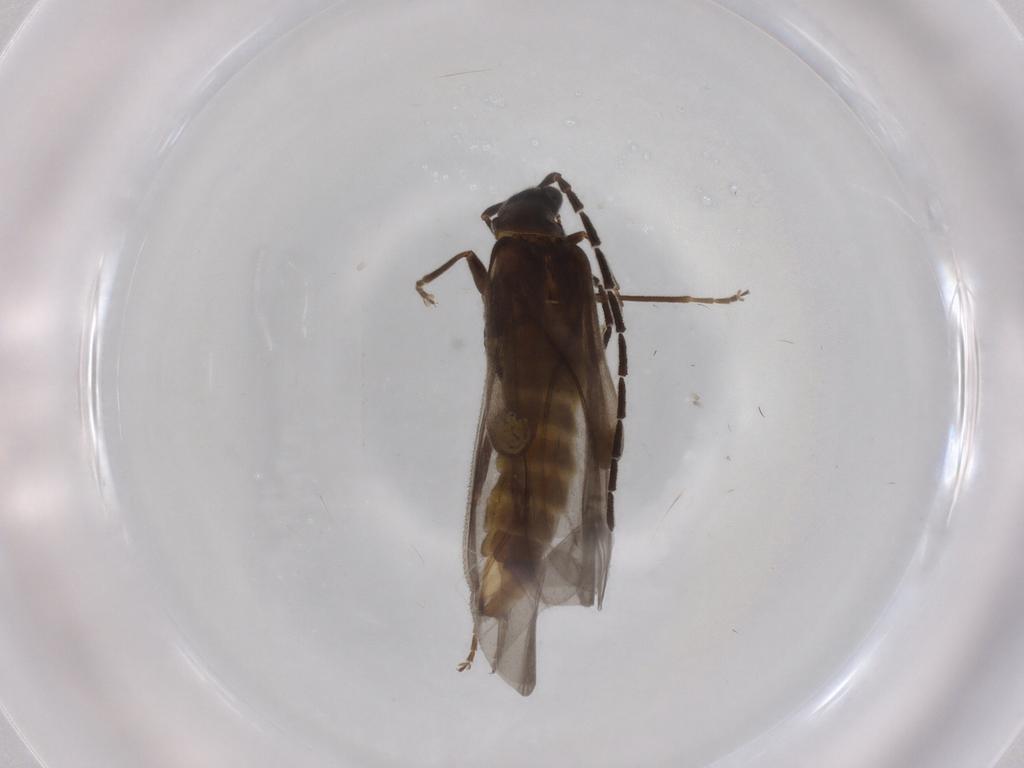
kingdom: Animalia
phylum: Arthropoda
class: Insecta
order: Coleoptera
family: Cantharidae
